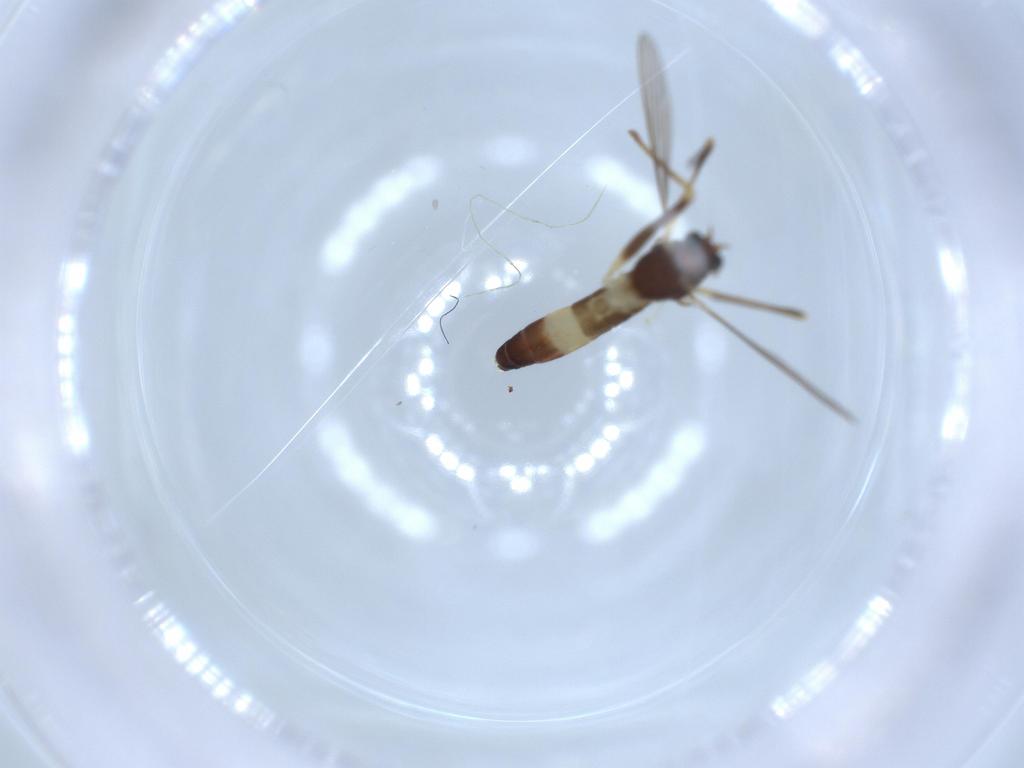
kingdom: Animalia
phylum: Arthropoda
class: Insecta
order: Diptera
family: Chironomidae
